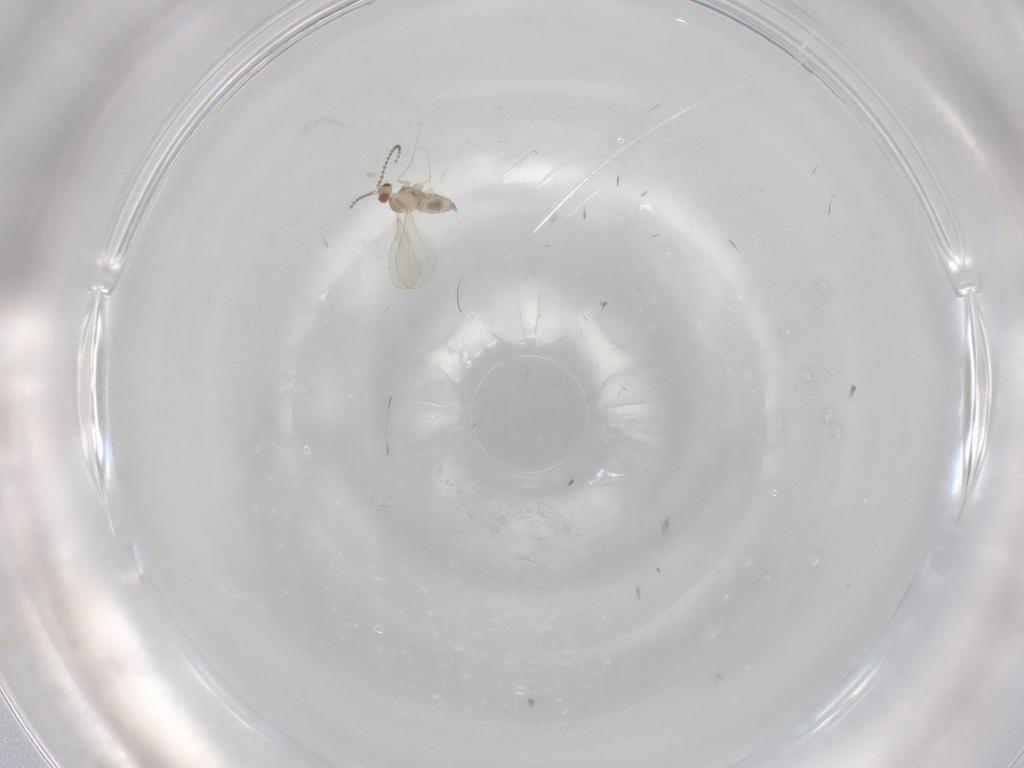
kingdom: Animalia
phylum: Arthropoda
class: Insecta
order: Diptera
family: Cecidomyiidae
